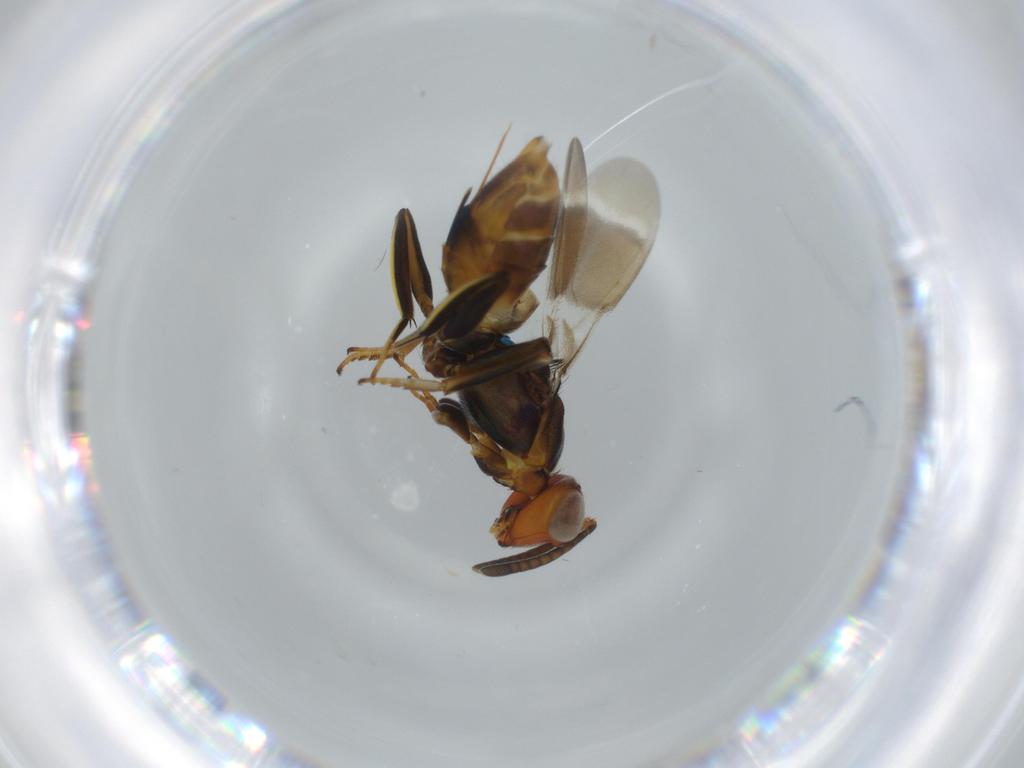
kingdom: Animalia
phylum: Arthropoda
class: Insecta
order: Hymenoptera
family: Eupelmidae
